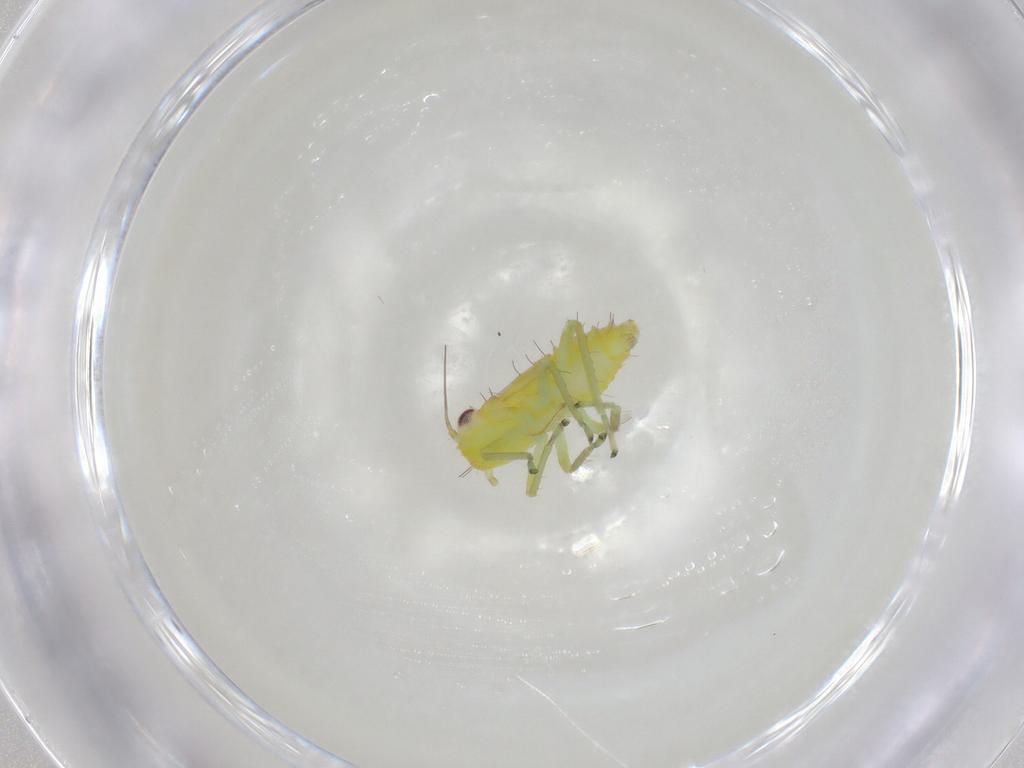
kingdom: Animalia
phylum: Arthropoda
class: Insecta
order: Hemiptera
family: Cicadellidae
